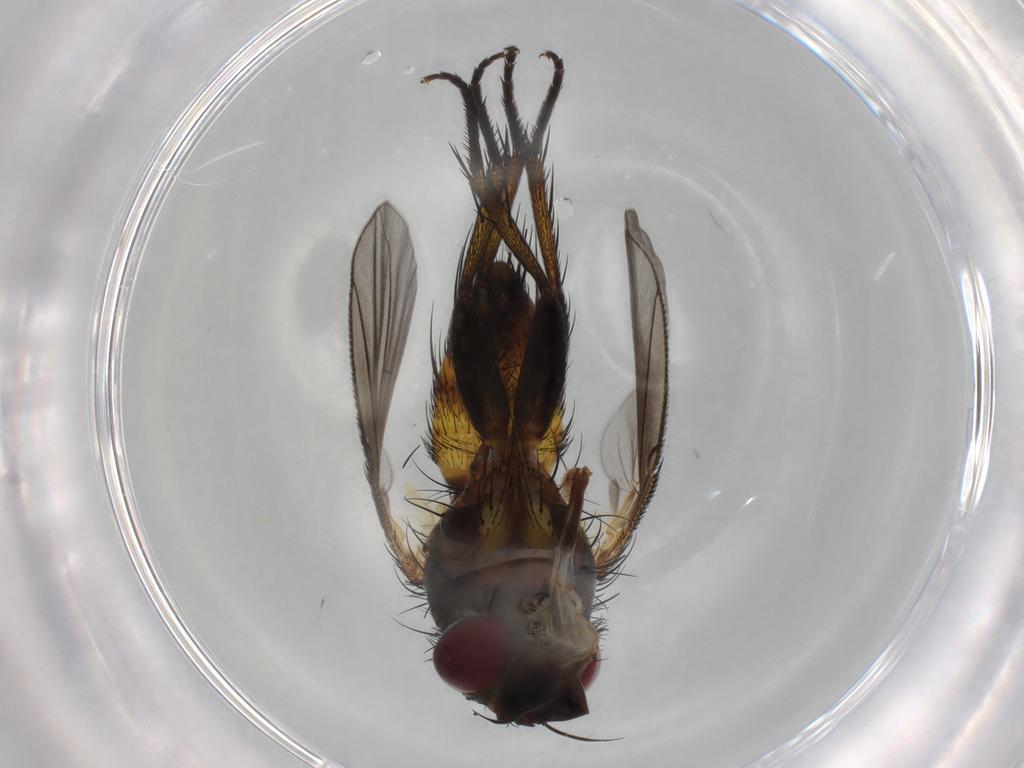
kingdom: Animalia
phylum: Arthropoda
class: Insecta
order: Diptera
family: Tachinidae
